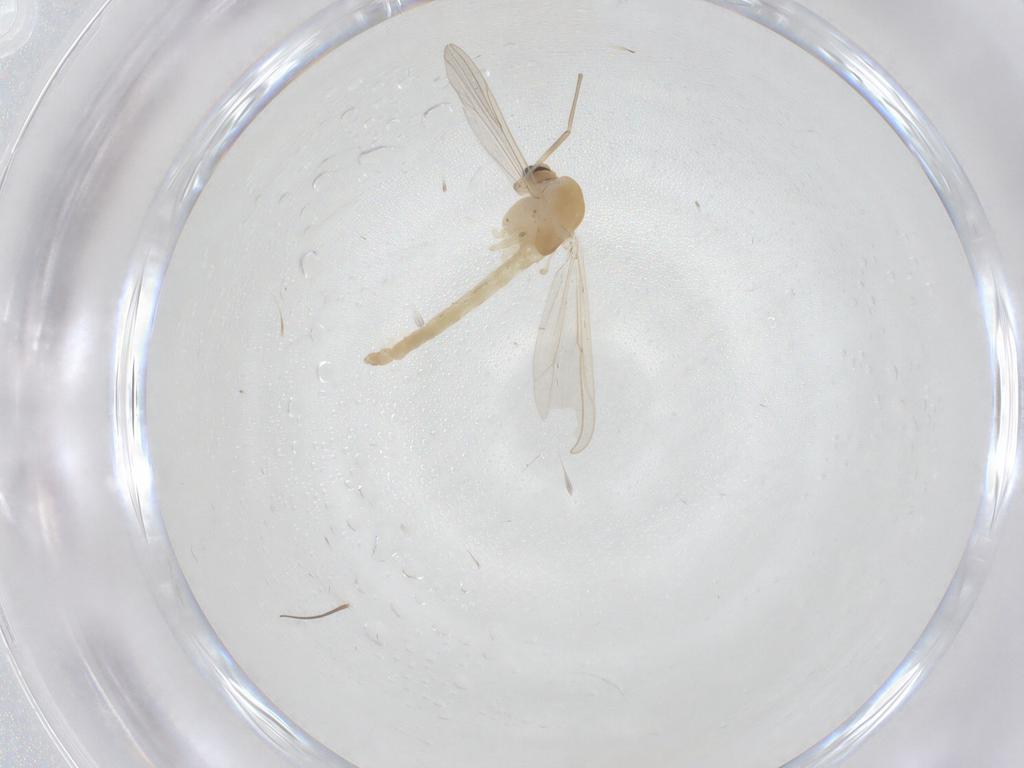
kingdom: Animalia
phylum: Arthropoda
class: Insecta
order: Diptera
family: Chironomidae
